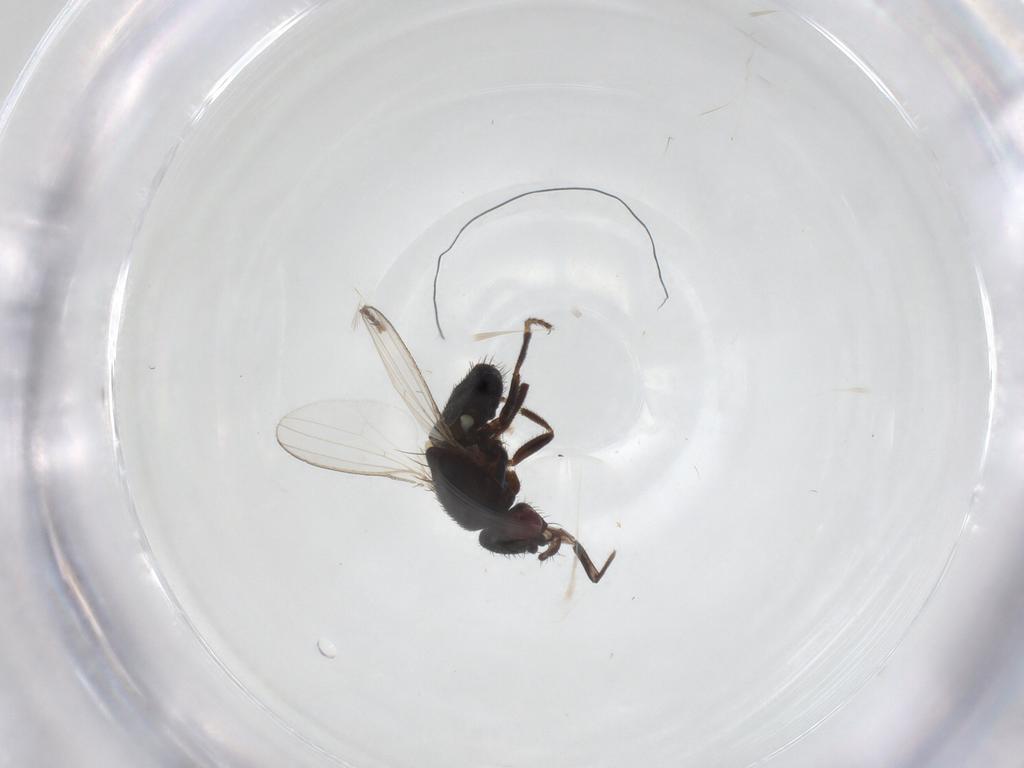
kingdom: Animalia
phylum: Arthropoda
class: Insecta
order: Diptera
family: Milichiidae
